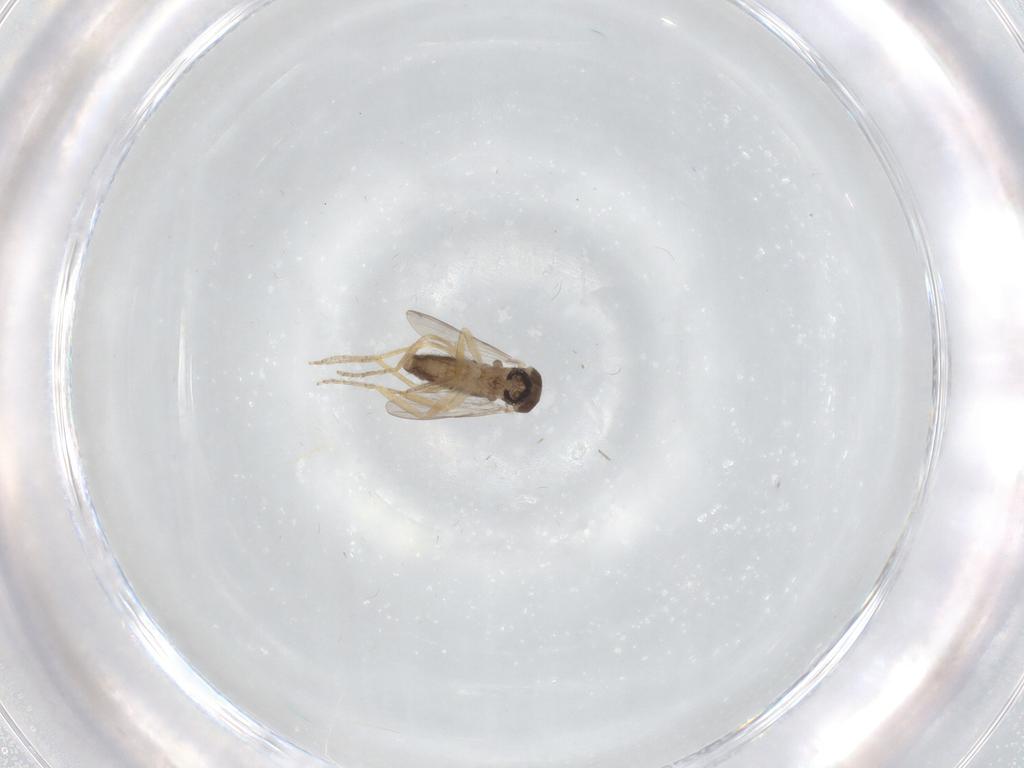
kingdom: Animalia
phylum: Arthropoda
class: Insecta
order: Diptera
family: Ceratopogonidae
